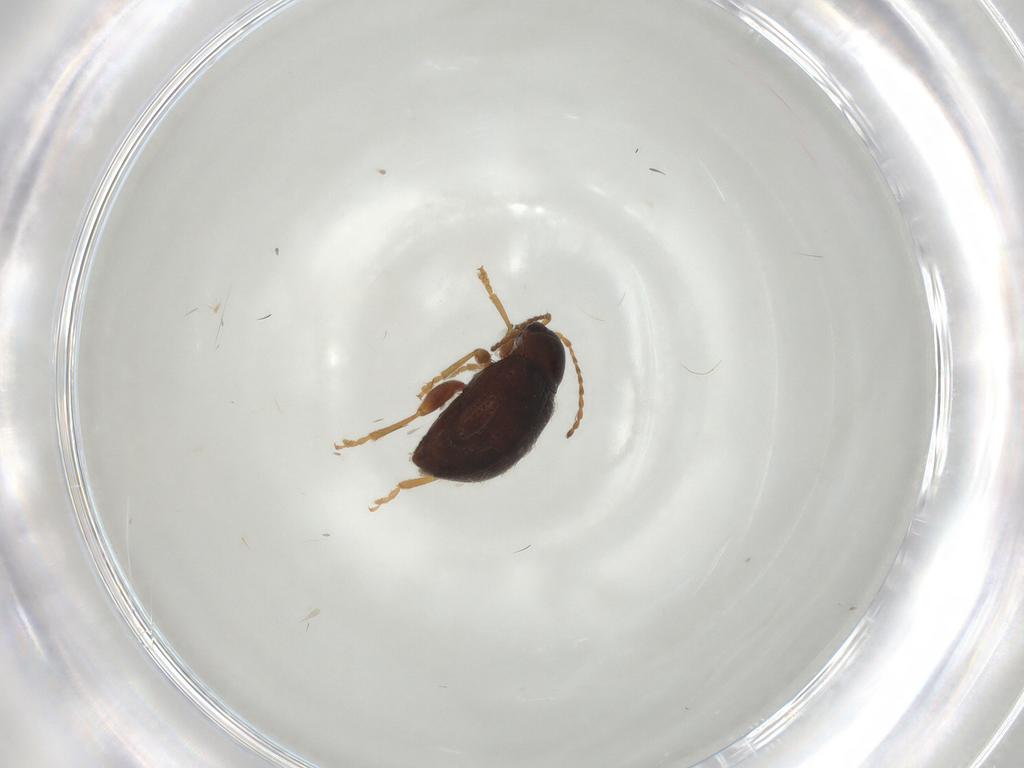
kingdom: Animalia
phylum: Arthropoda
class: Insecta
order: Coleoptera
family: Chrysomelidae
